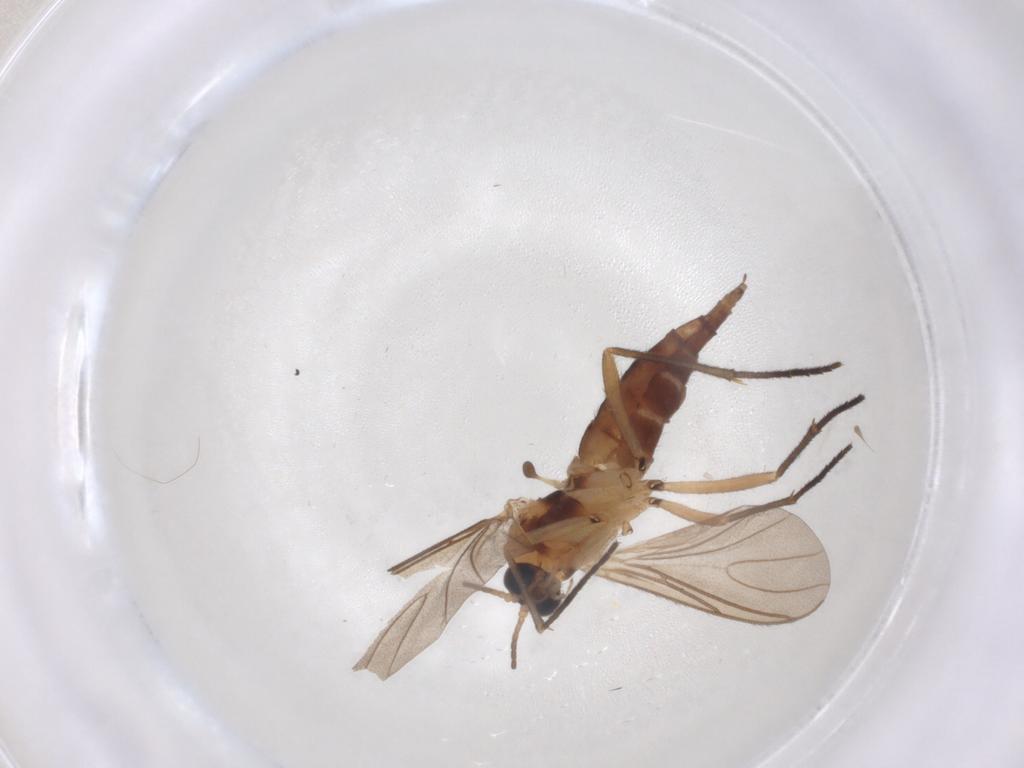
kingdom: Animalia
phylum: Arthropoda
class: Insecta
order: Diptera
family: Sciaridae
